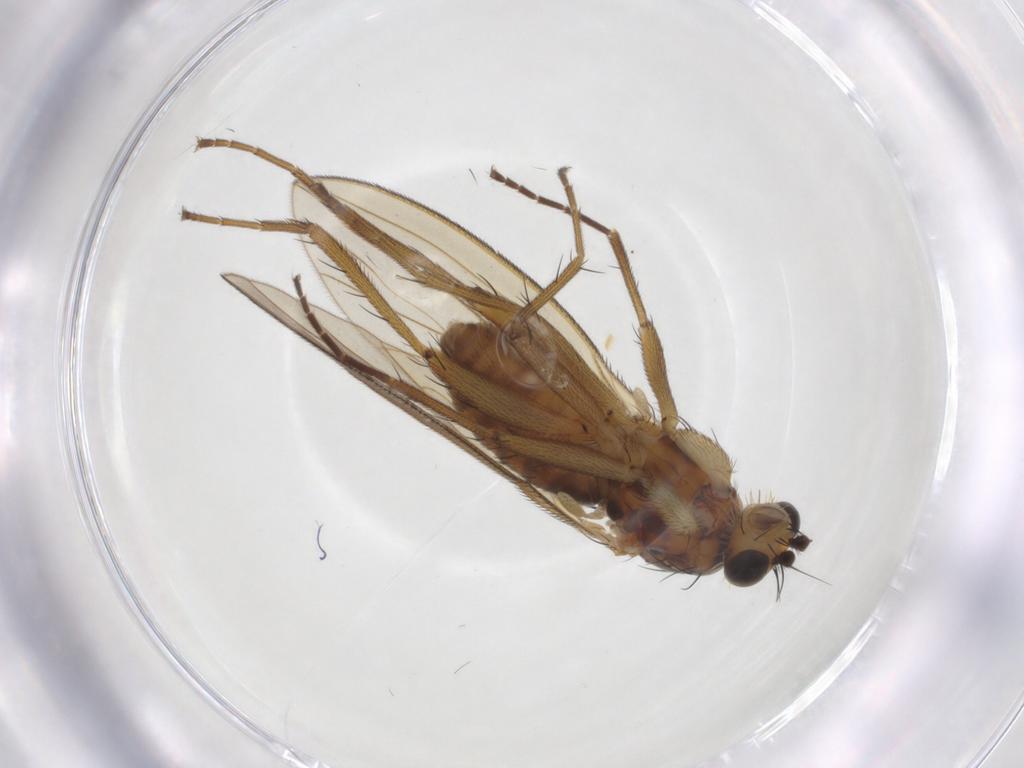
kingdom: Animalia
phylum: Arthropoda
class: Insecta
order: Diptera
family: Lonchopteridae
